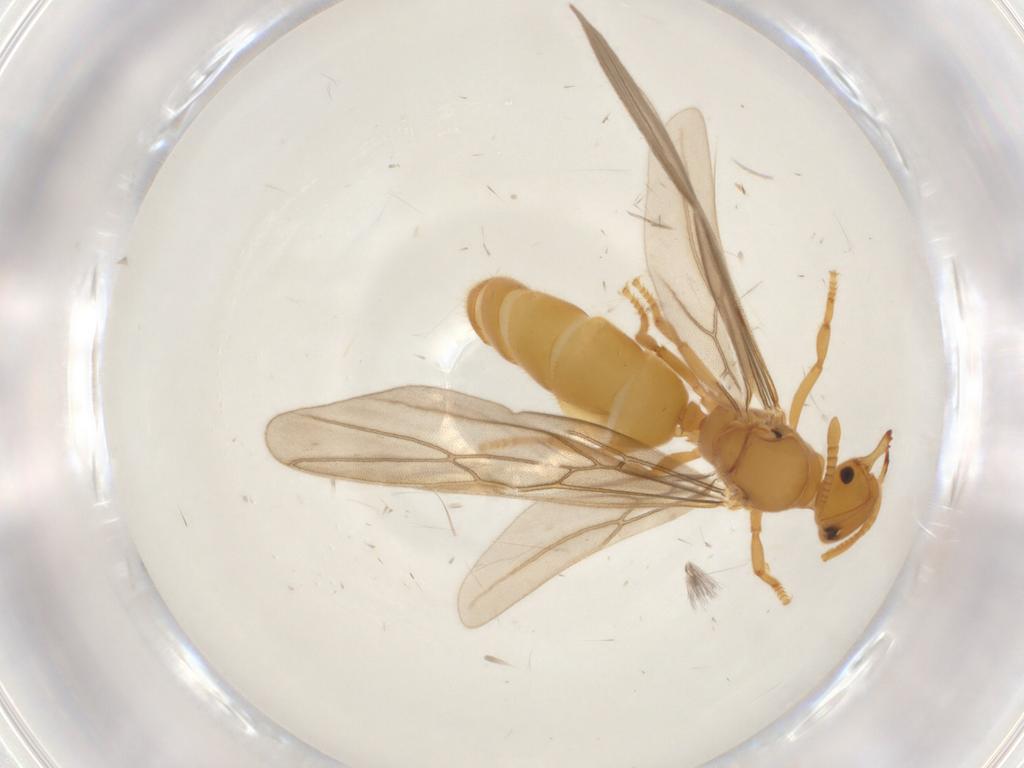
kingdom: Animalia
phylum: Arthropoda
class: Insecta
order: Hymenoptera
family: Formicidae
